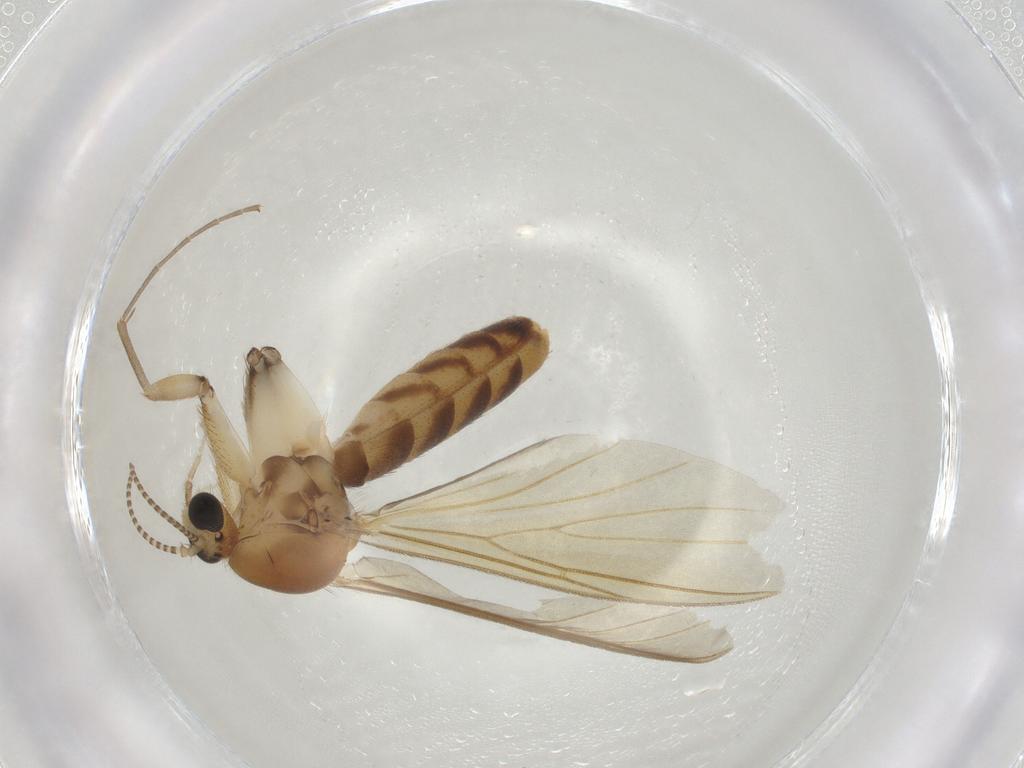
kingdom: Animalia
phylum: Arthropoda
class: Insecta
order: Diptera
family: Mycetophilidae
